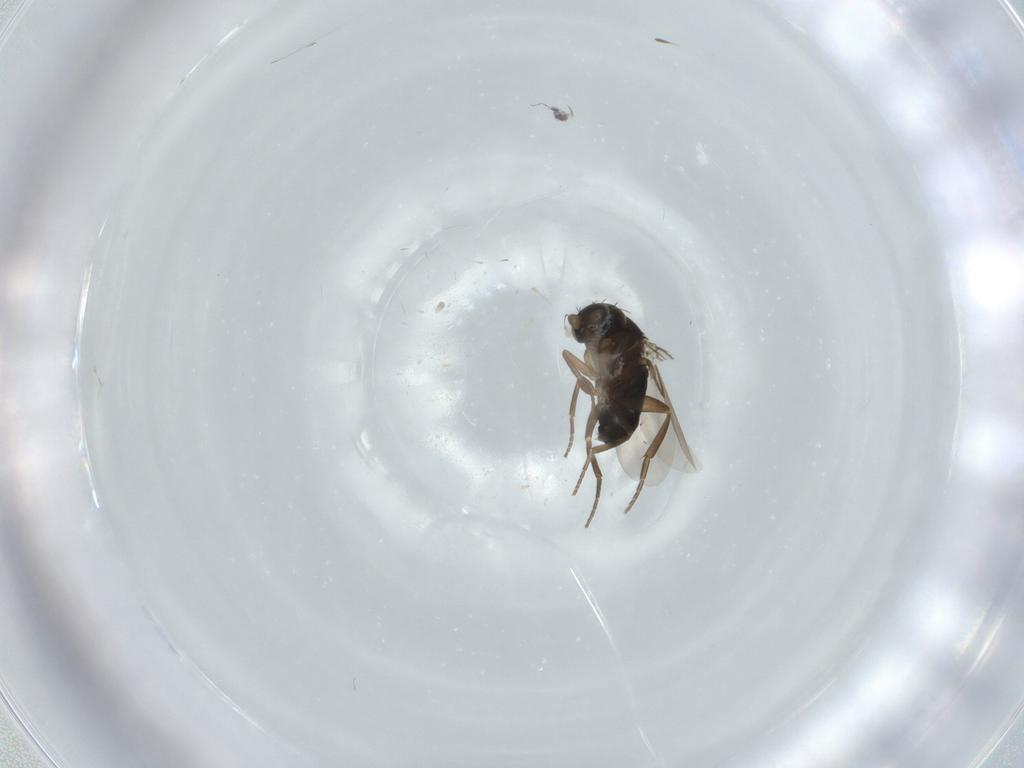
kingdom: Animalia
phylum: Arthropoda
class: Insecta
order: Diptera
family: Phoridae
